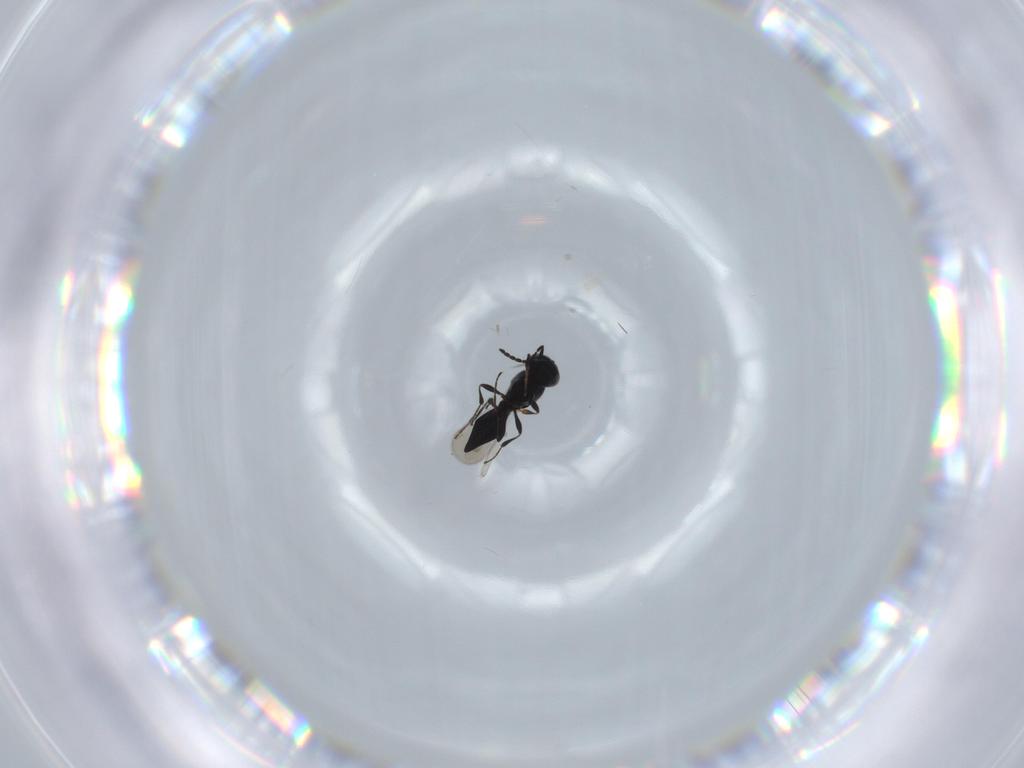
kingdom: Animalia
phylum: Arthropoda
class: Insecta
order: Diptera
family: Mythicomyiidae
